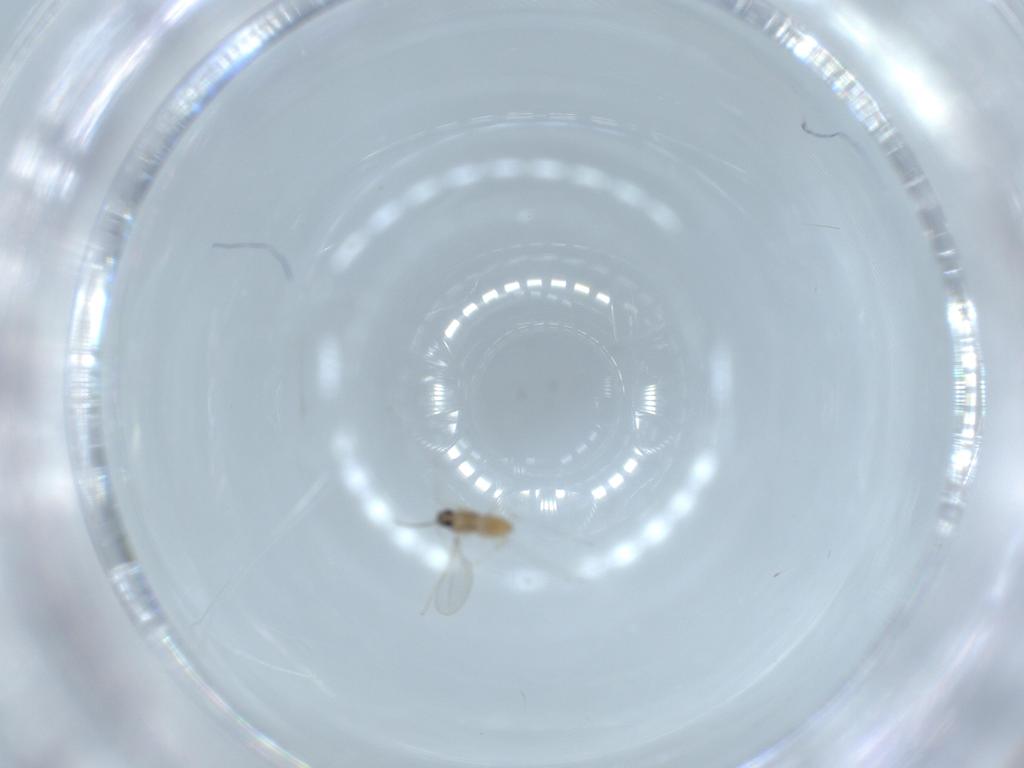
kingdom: Animalia
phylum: Arthropoda
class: Insecta
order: Diptera
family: Cecidomyiidae
